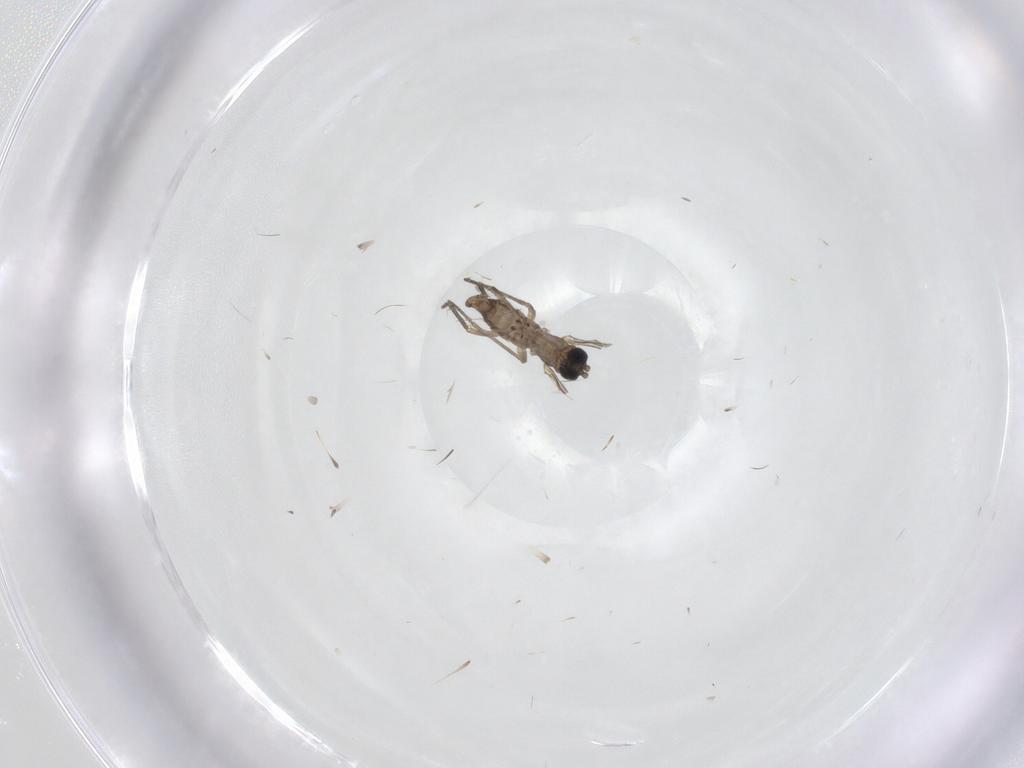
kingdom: Animalia
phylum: Arthropoda
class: Insecta
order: Diptera
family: Sciaridae
